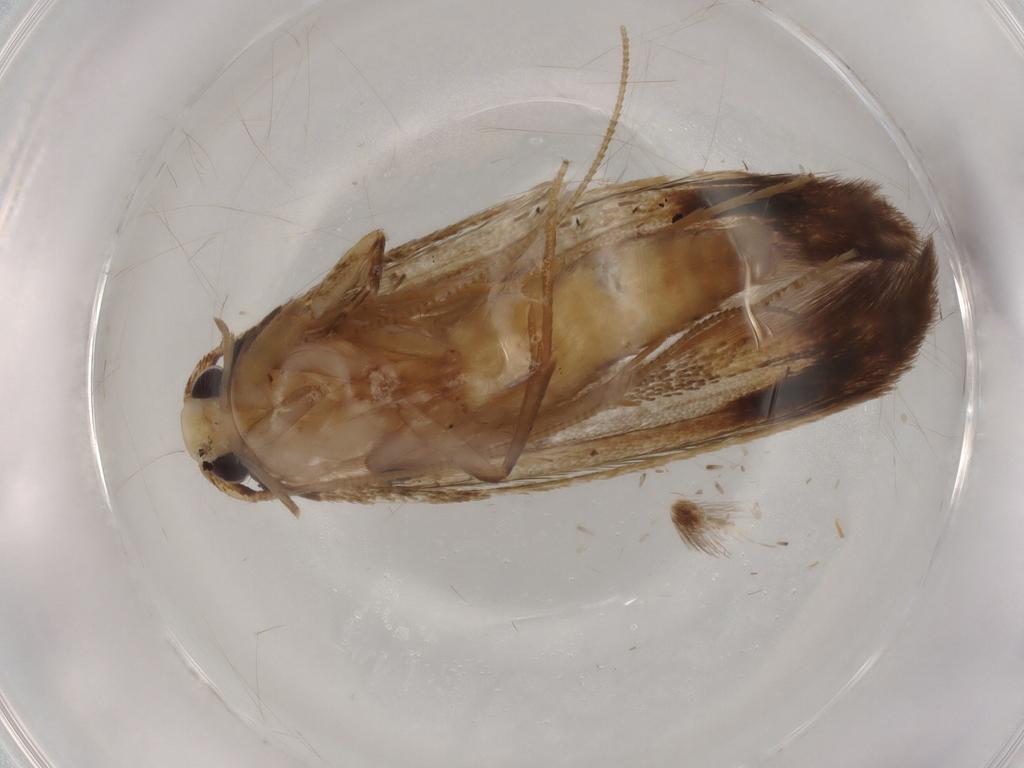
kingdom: Animalia
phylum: Arthropoda
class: Insecta
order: Lepidoptera
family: Tineidae
